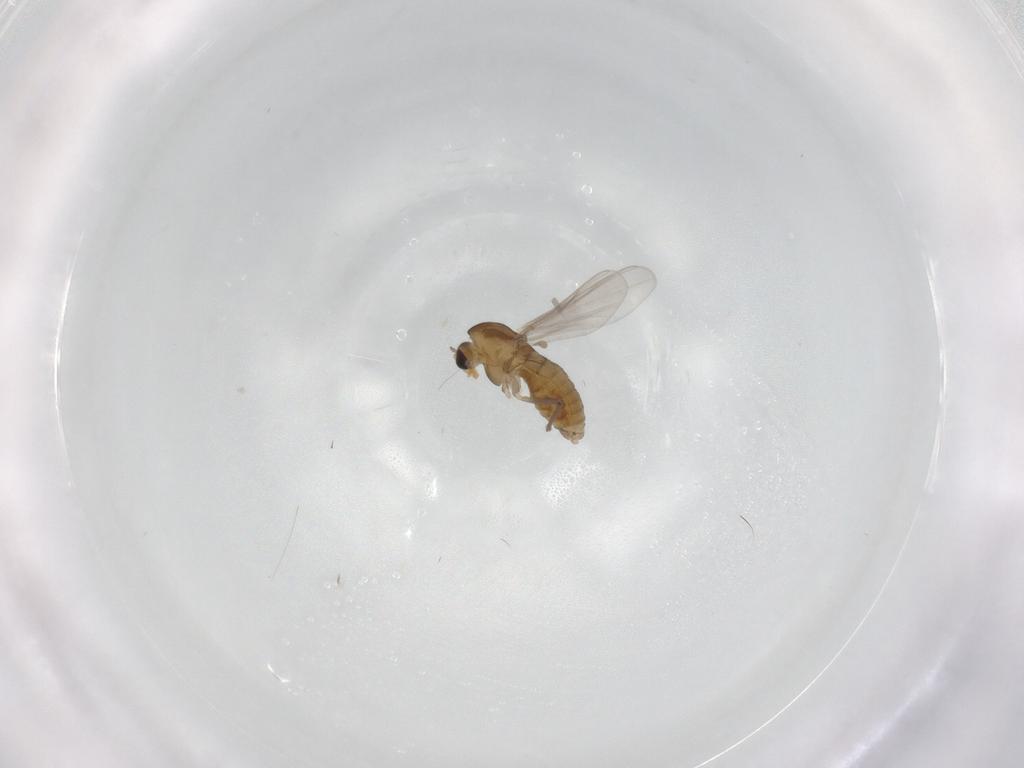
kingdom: Animalia
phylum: Arthropoda
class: Insecta
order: Diptera
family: Chironomidae
